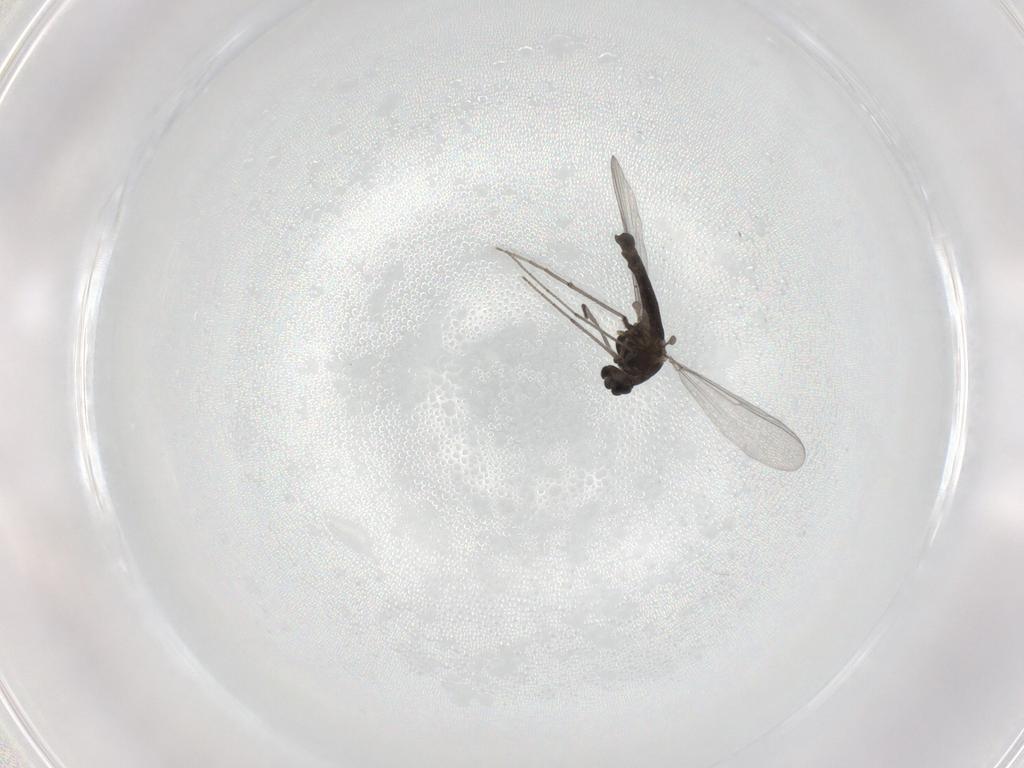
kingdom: Animalia
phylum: Arthropoda
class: Insecta
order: Diptera
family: Chironomidae
